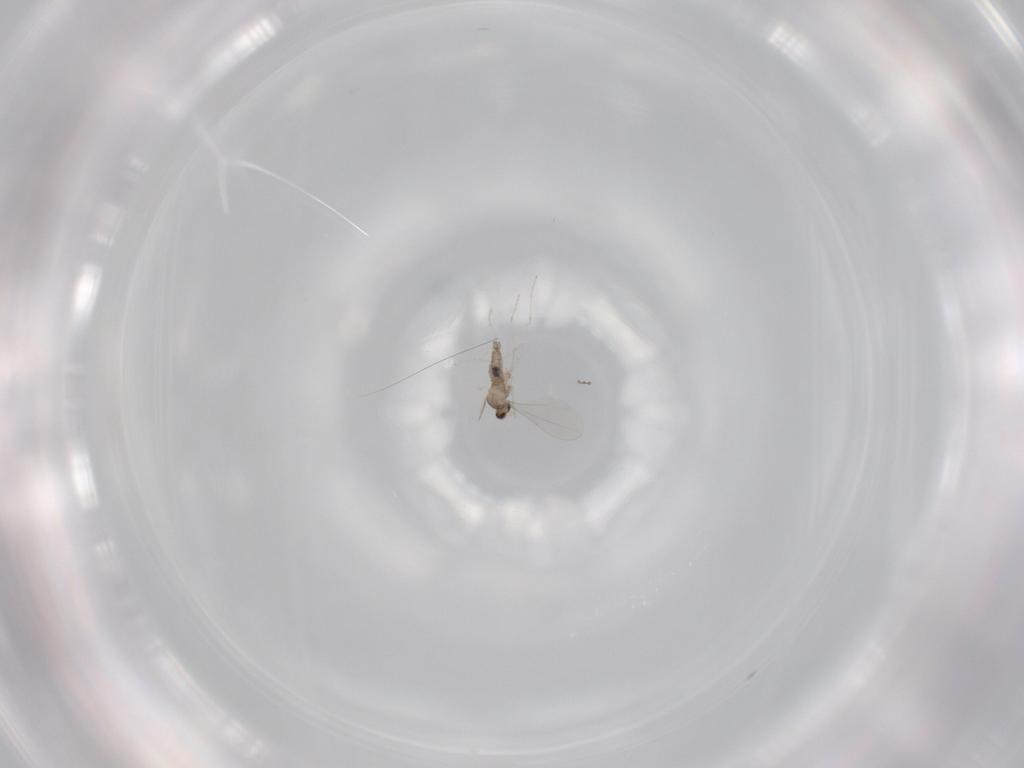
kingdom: Animalia
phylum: Arthropoda
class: Insecta
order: Diptera
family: Cecidomyiidae
